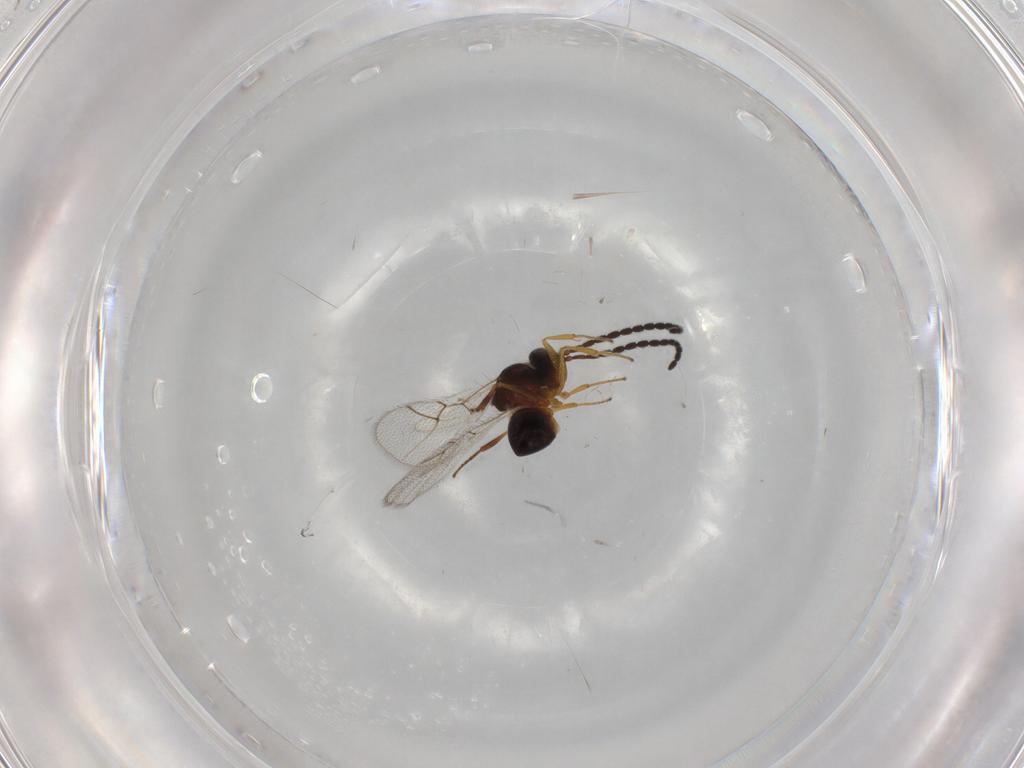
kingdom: Animalia
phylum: Arthropoda
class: Insecta
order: Hymenoptera
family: Figitidae
